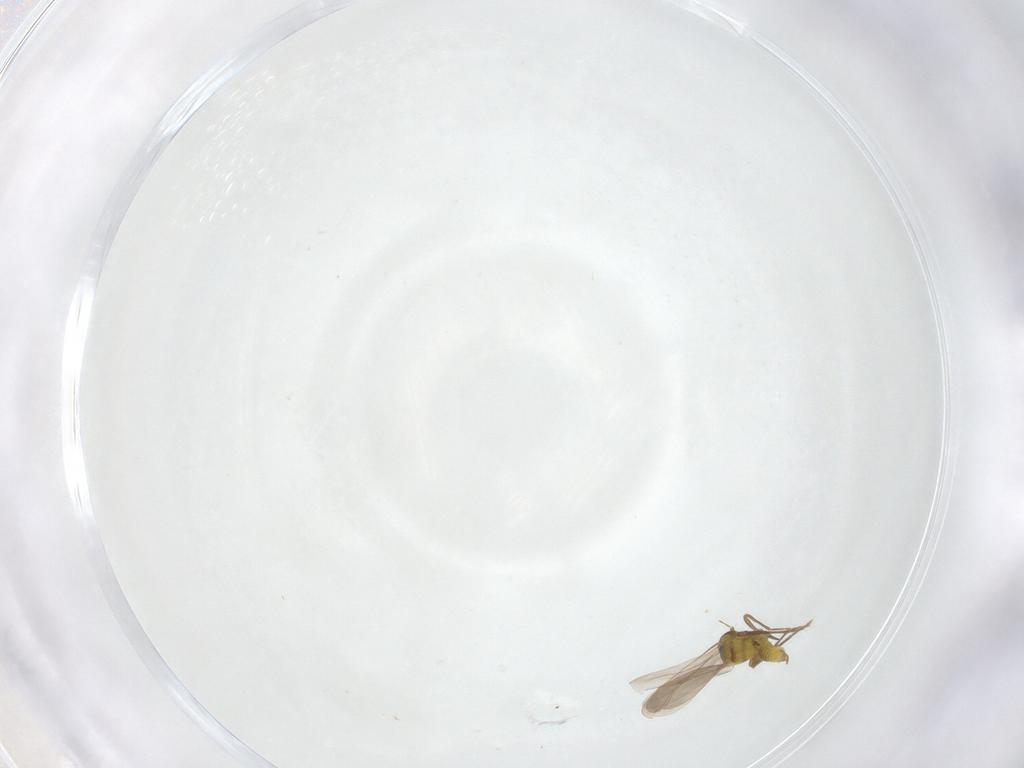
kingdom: Animalia
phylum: Arthropoda
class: Insecta
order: Hemiptera
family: Aleyrodidae
